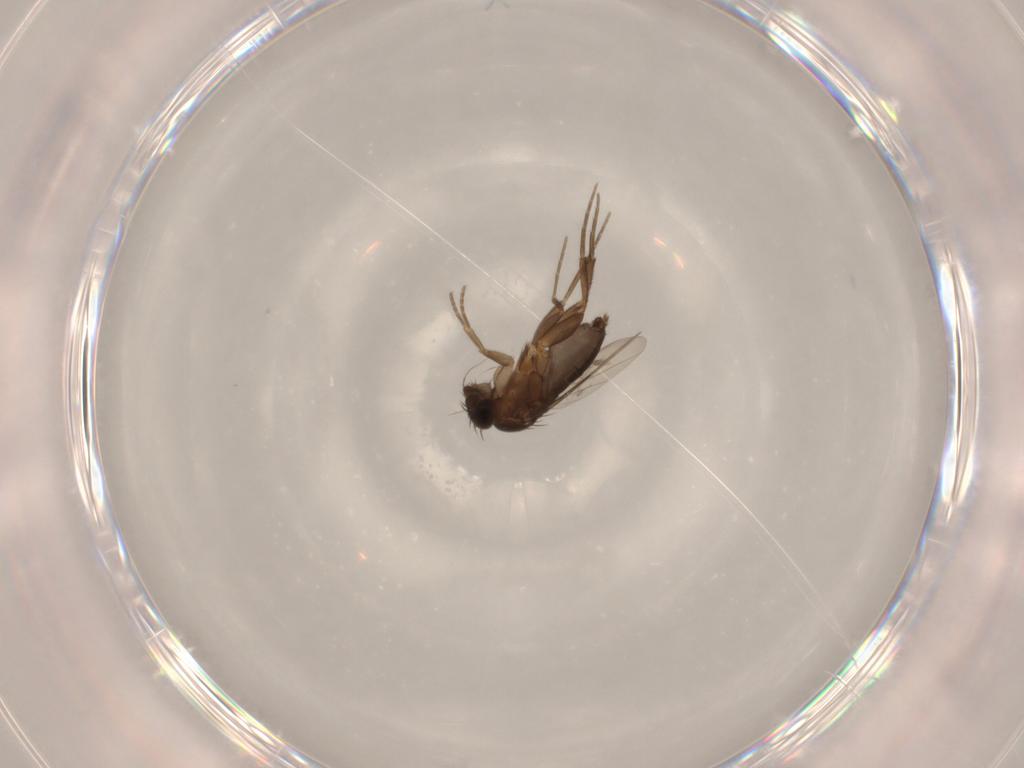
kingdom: Animalia
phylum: Arthropoda
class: Insecta
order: Diptera
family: Phoridae
